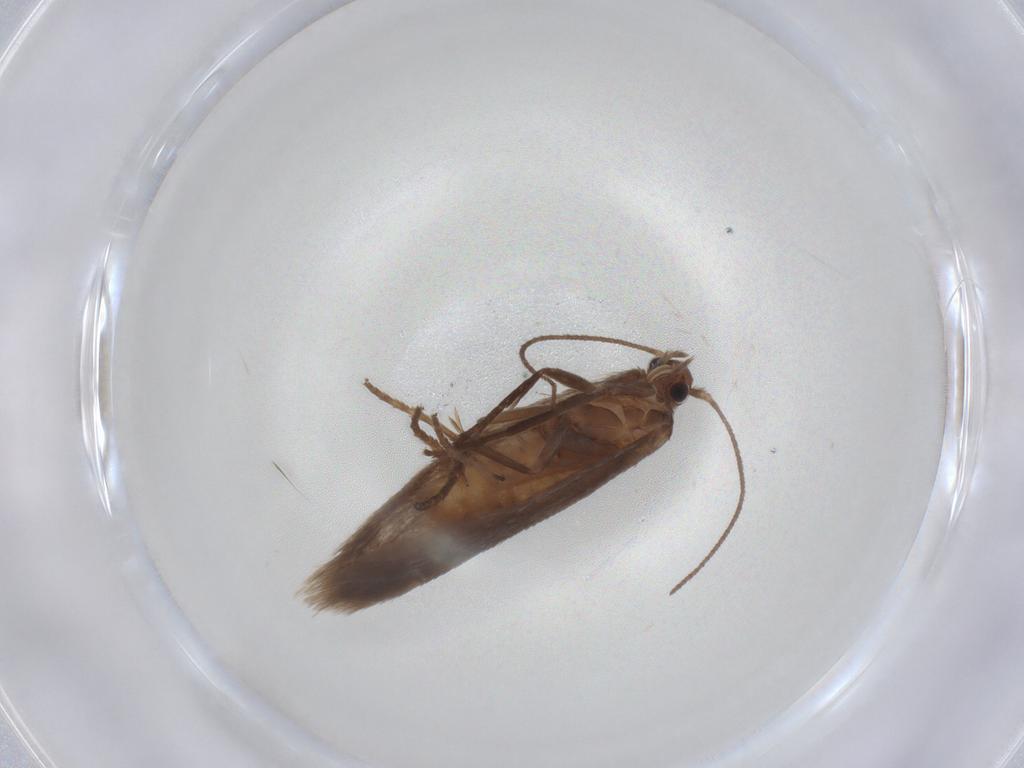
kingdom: Animalia
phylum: Arthropoda
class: Insecta
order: Lepidoptera
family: Limacodidae
